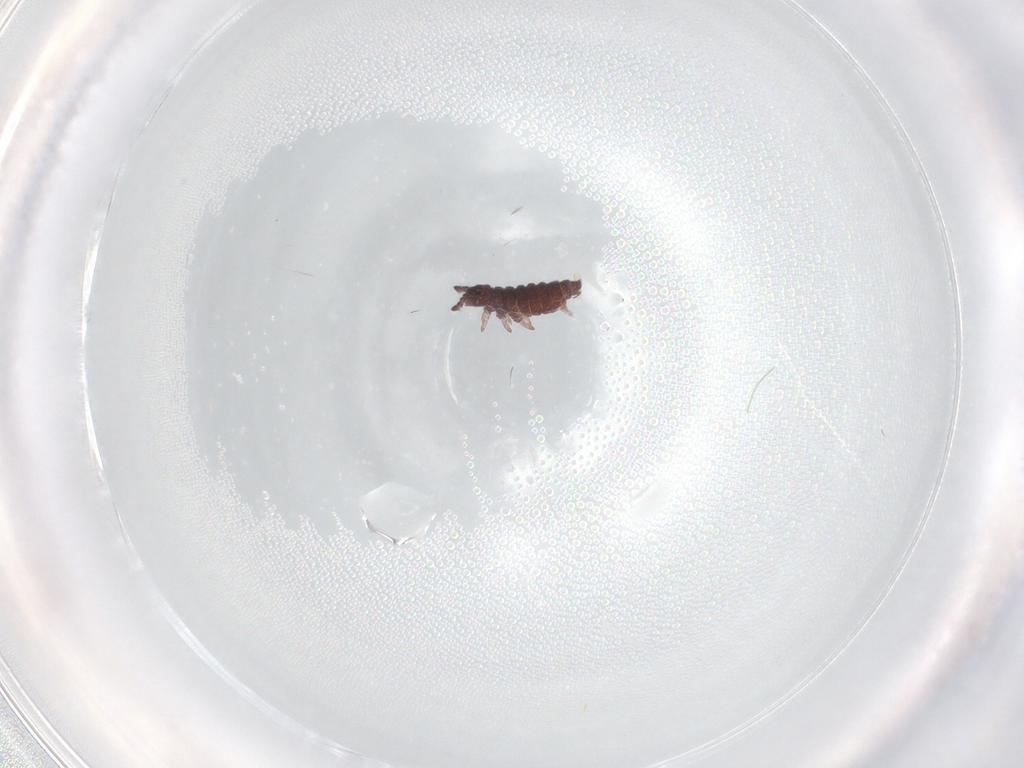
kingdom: Animalia
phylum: Arthropoda
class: Collembola
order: Poduromorpha
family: Hypogastruridae
